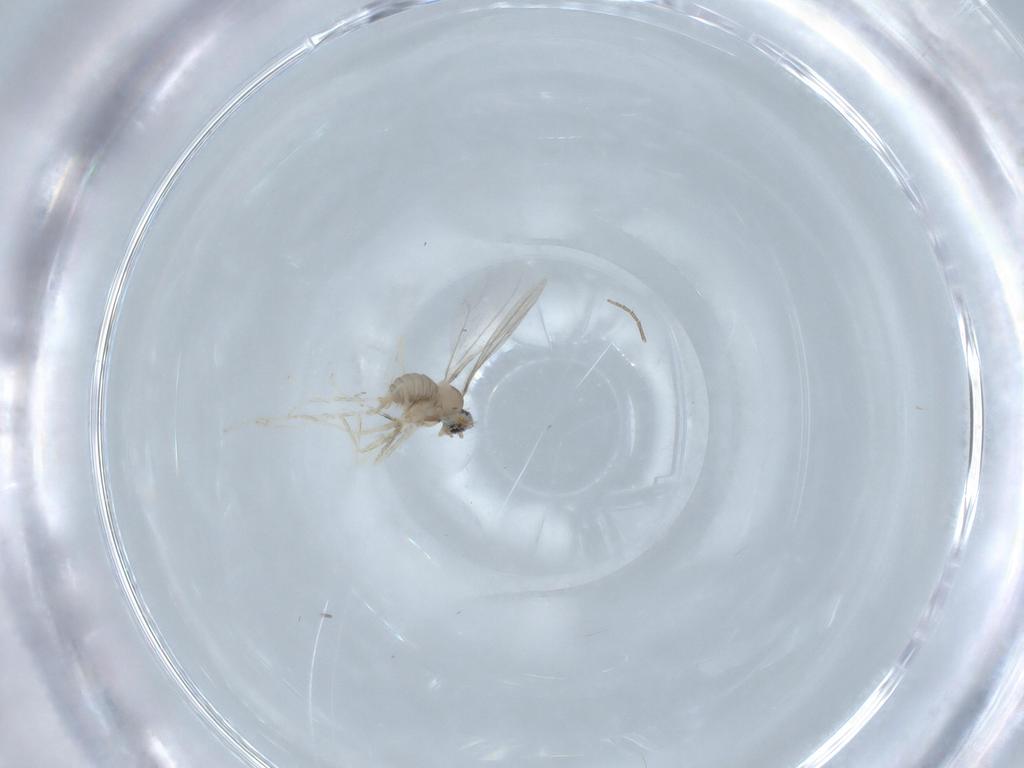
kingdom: Animalia
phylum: Arthropoda
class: Insecta
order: Diptera
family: Cecidomyiidae
